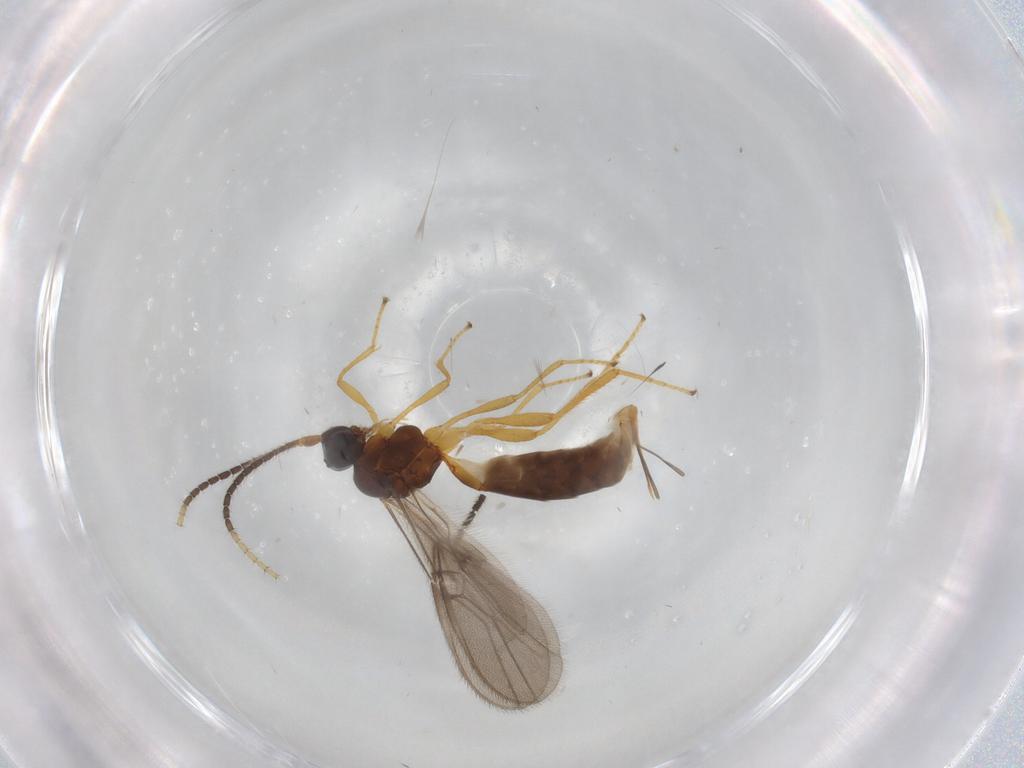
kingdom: Animalia
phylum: Arthropoda
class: Insecta
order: Hymenoptera
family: Braconidae
